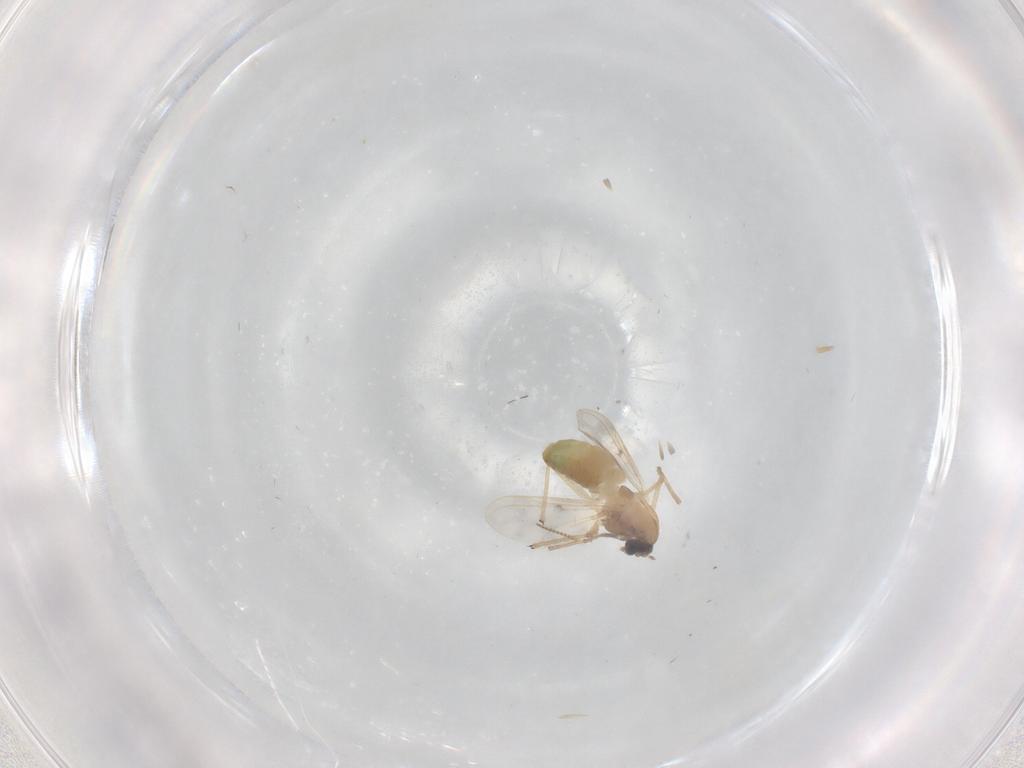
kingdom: Animalia
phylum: Arthropoda
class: Insecta
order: Diptera
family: Chironomidae
